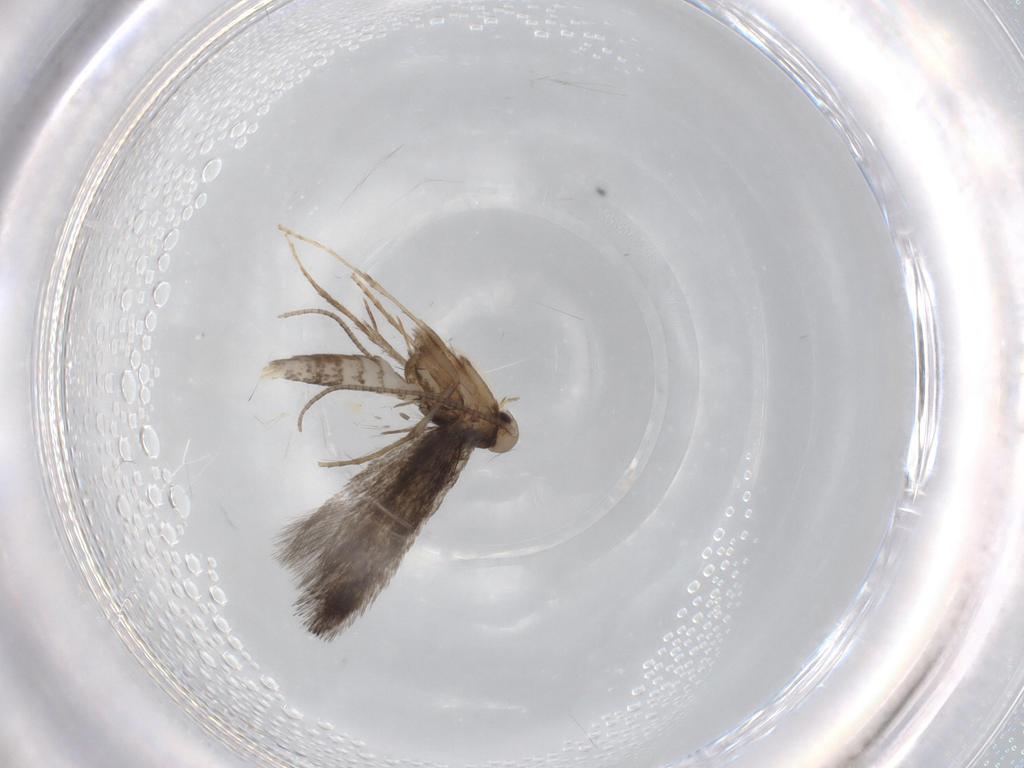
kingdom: Animalia
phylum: Arthropoda
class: Insecta
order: Lepidoptera
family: Nepticulidae
